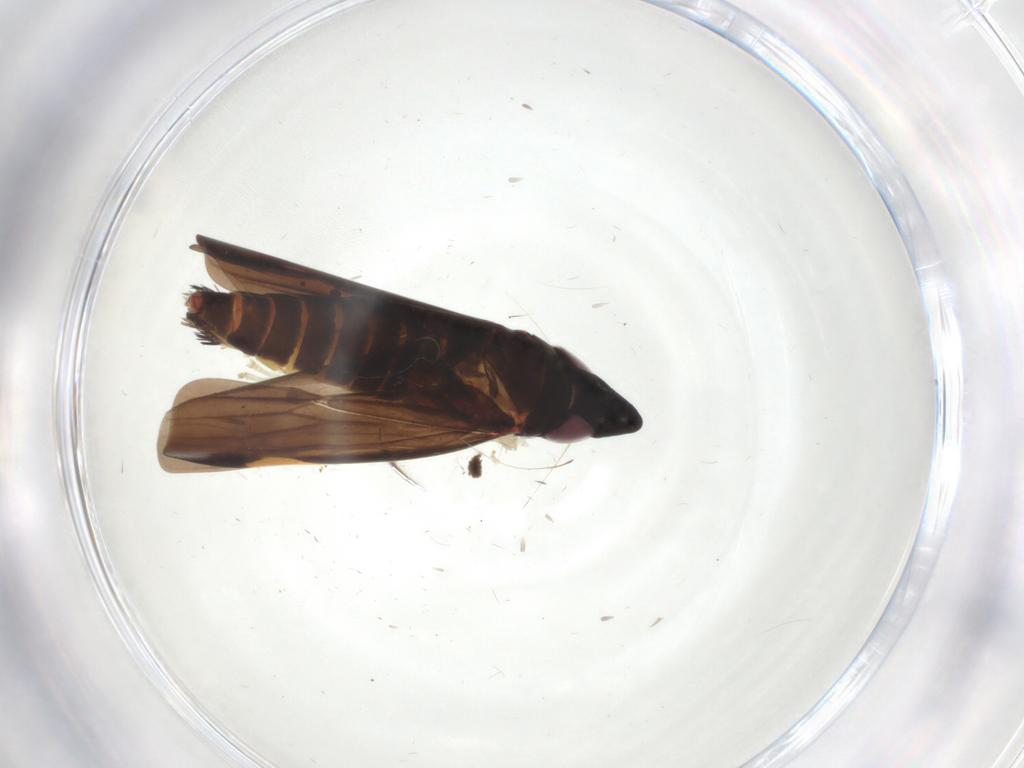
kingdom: Animalia
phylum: Arthropoda
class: Insecta
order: Hemiptera
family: Cicadellidae
